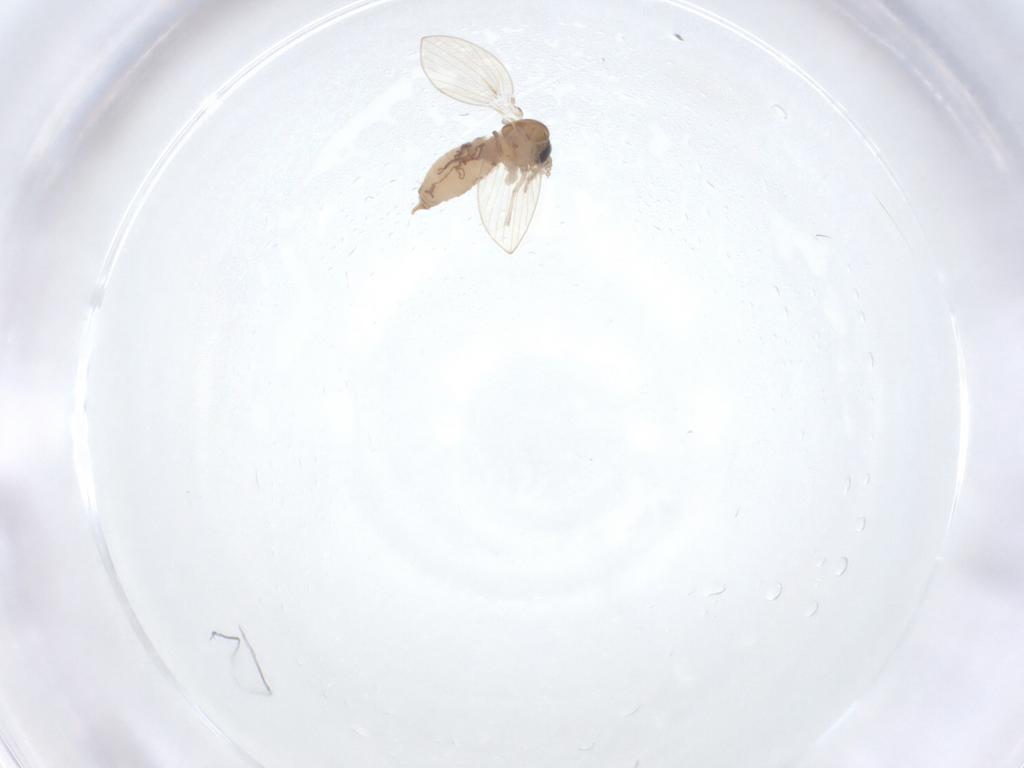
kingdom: Animalia
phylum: Arthropoda
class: Insecta
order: Diptera
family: Psychodidae
